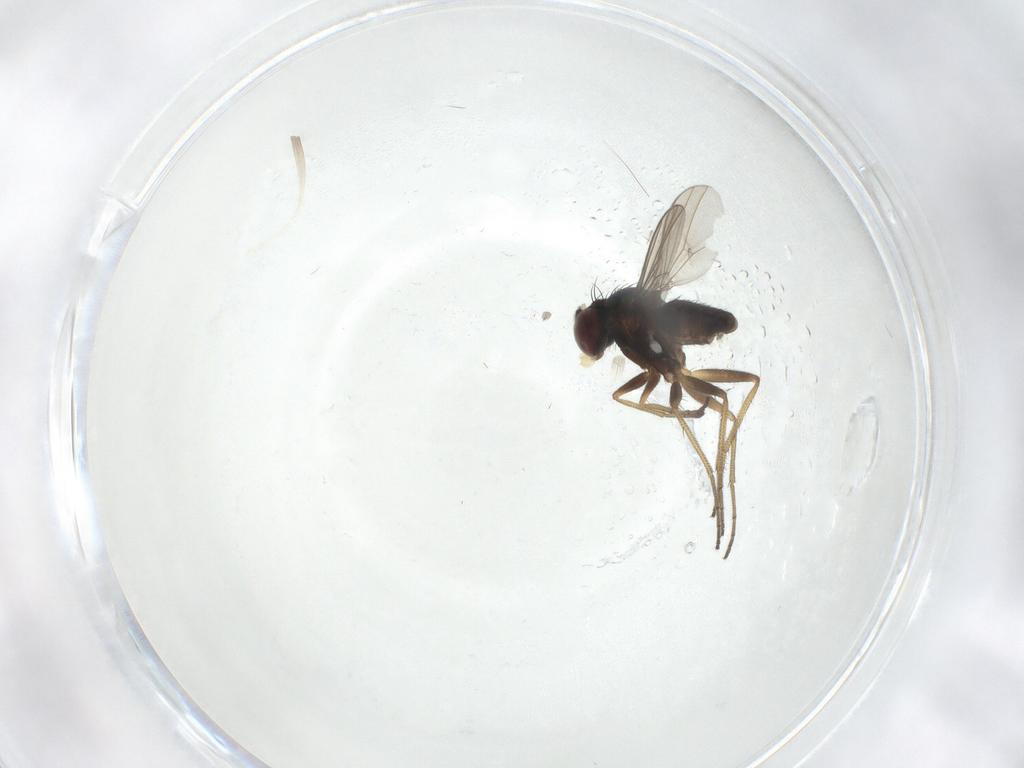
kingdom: Animalia
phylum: Arthropoda
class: Insecta
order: Diptera
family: Dolichopodidae
